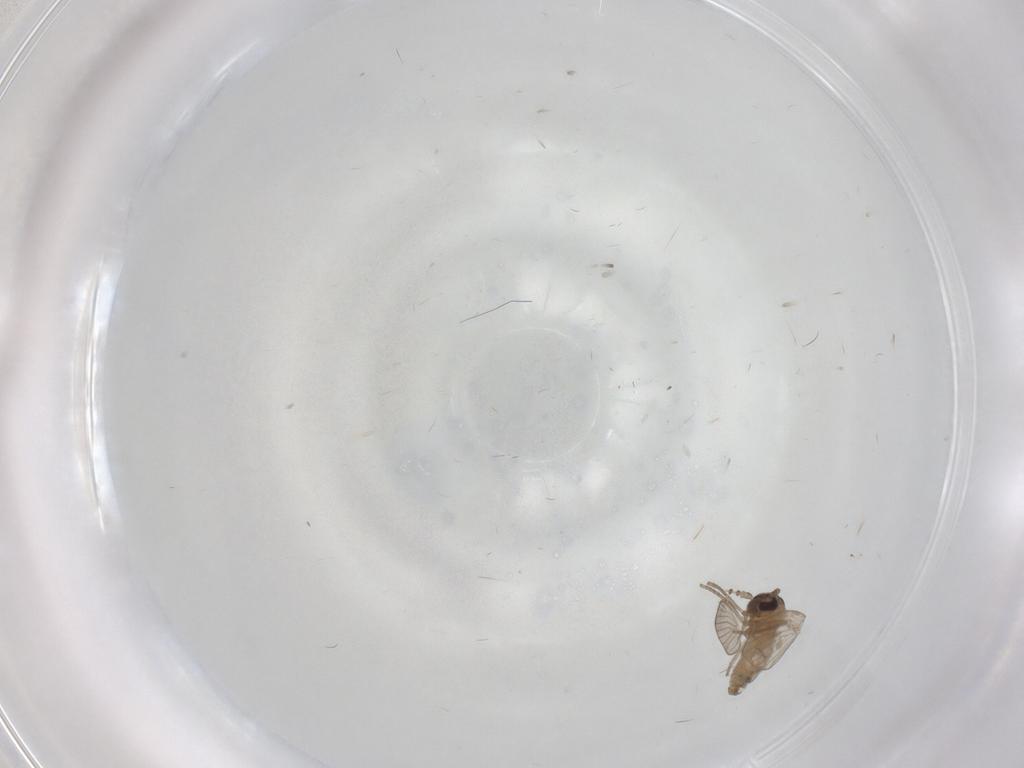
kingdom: Animalia
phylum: Arthropoda
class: Insecta
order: Diptera
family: Psychodidae
